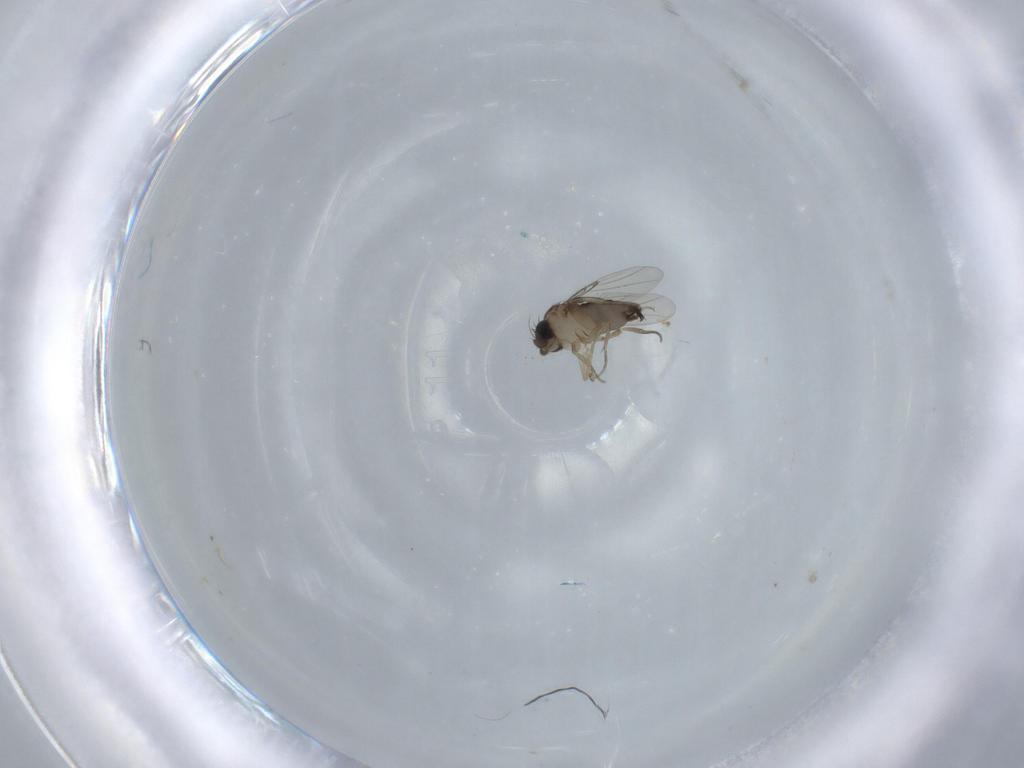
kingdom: Animalia
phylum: Arthropoda
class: Insecta
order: Diptera
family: Phoridae
